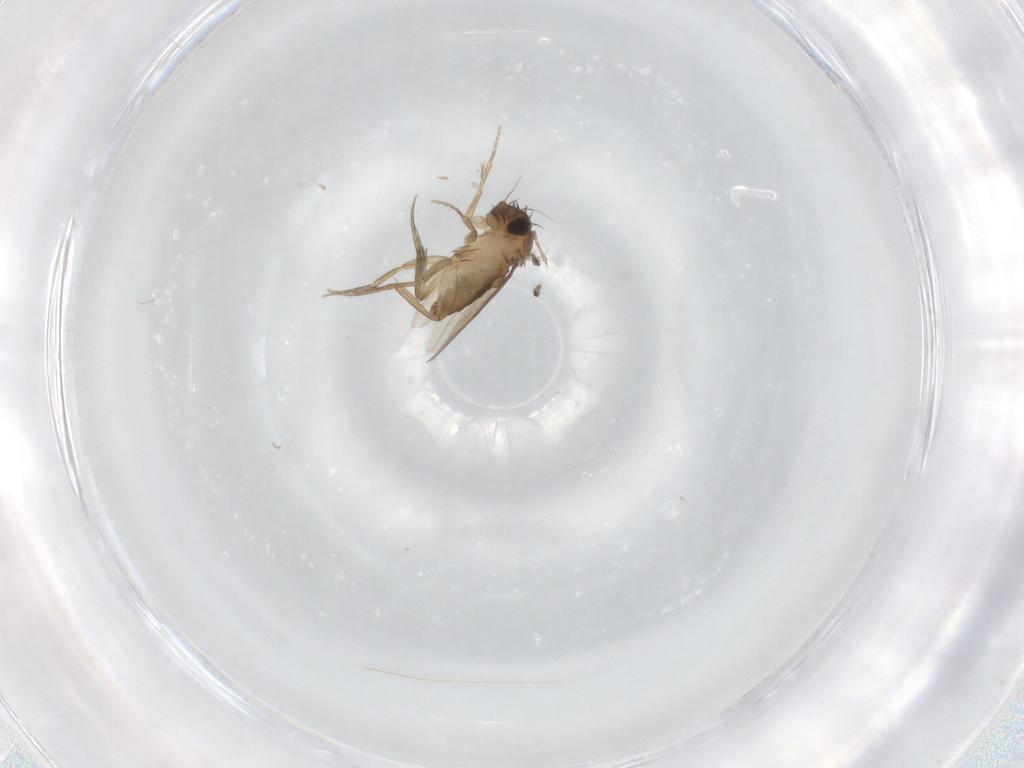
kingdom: Animalia
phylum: Arthropoda
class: Insecta
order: Diptera
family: Phoridae
